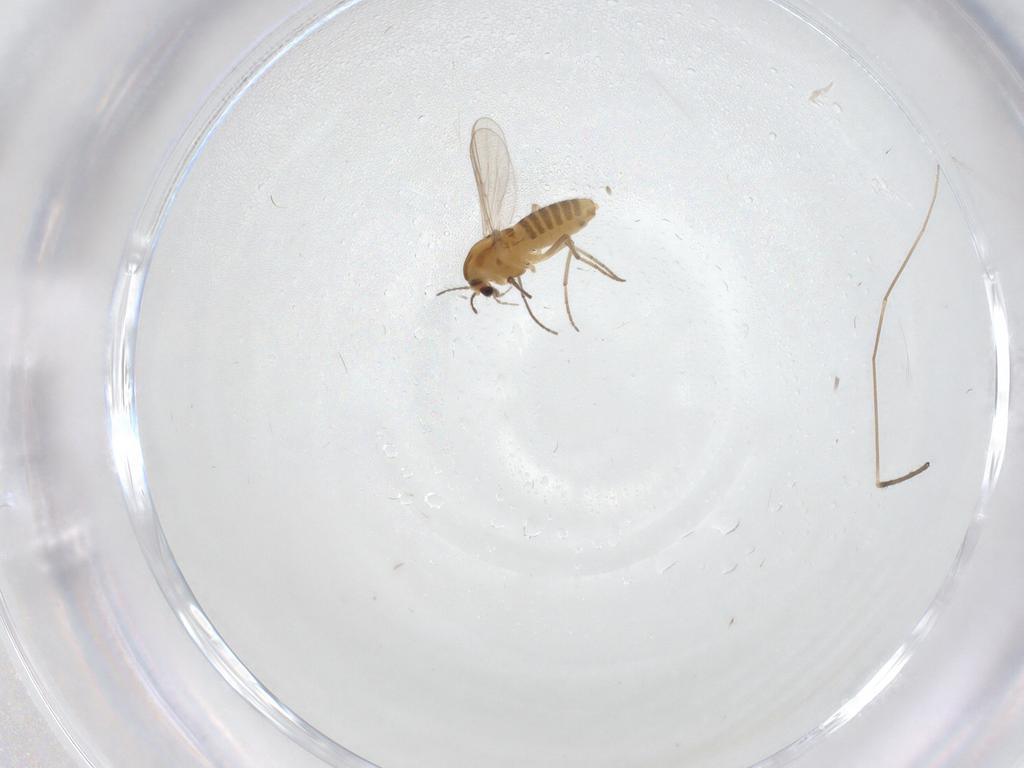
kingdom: Animalia
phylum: Arthropoda
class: Insecta
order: Diptera
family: Chironomidae
